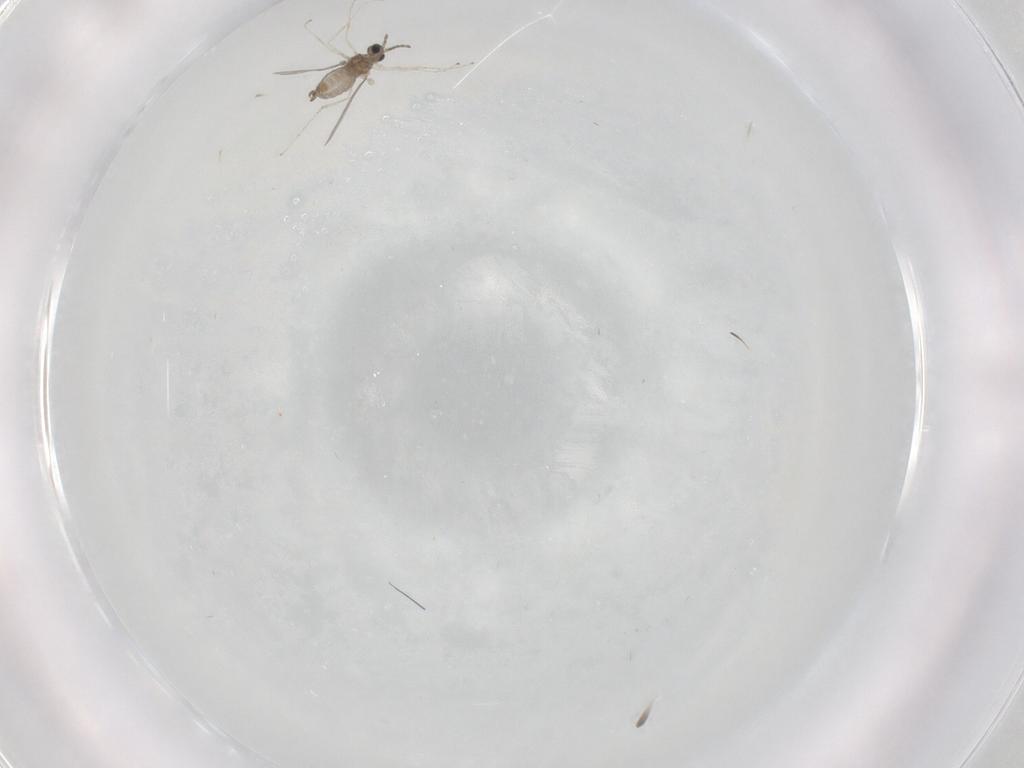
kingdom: Animalia
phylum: Arthropoda
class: Insecta
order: Diptera
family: Cecidomyiidae
